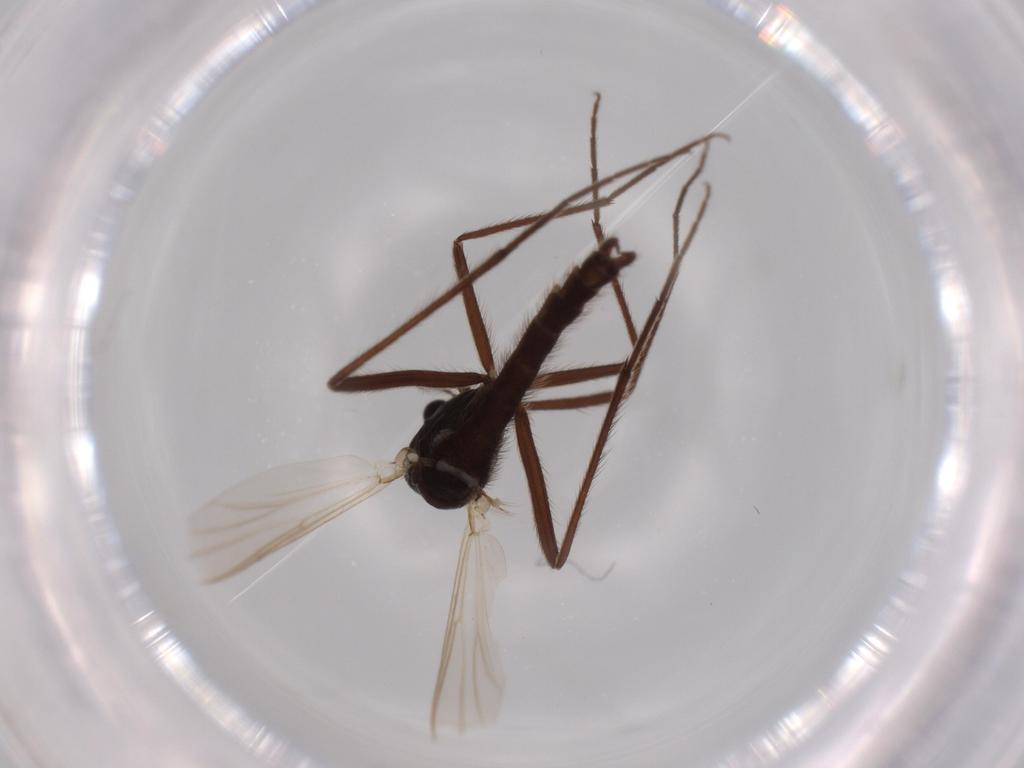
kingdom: Animalia
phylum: Arthropoda
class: Insecta
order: Diptera
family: Empididae
